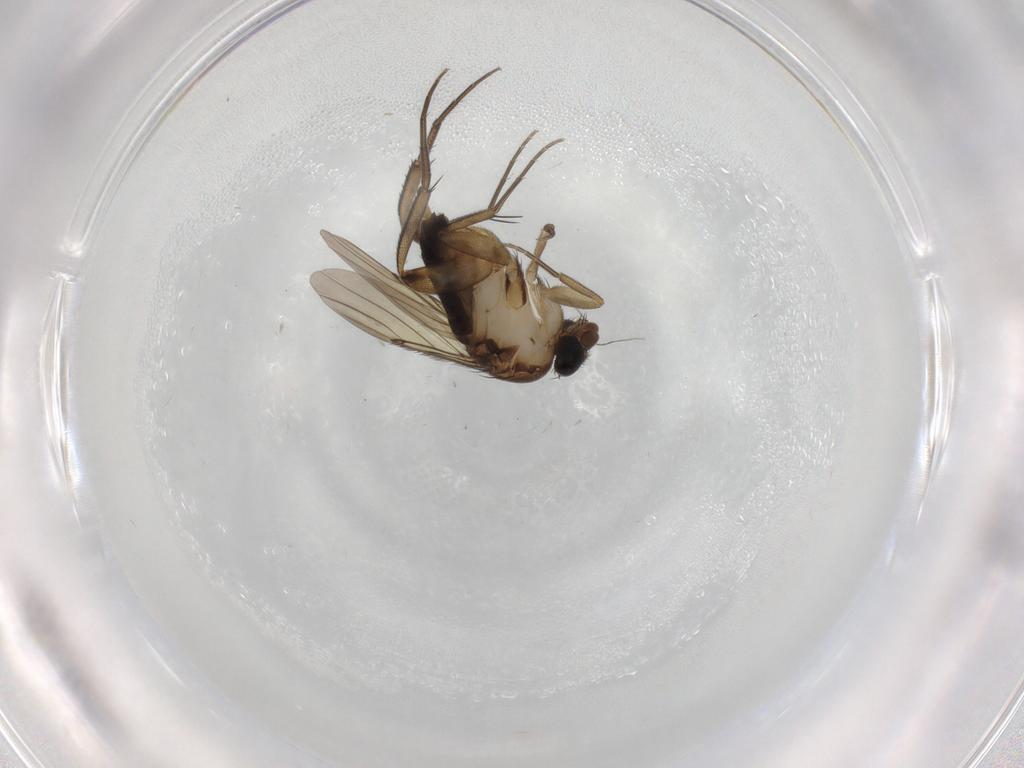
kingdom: Animalia
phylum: Arthropoda
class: Insecta
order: Diptera
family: Phoridae
